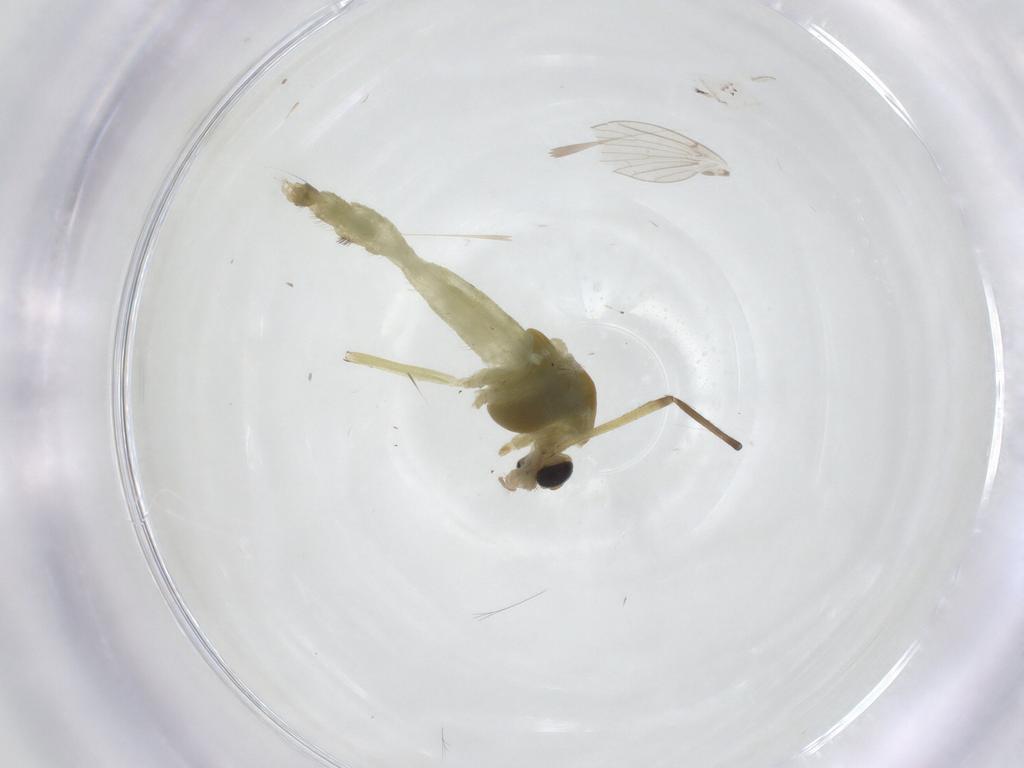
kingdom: Animalia
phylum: Arthropoda
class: Insecta
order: Diptera
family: Chironomidae
